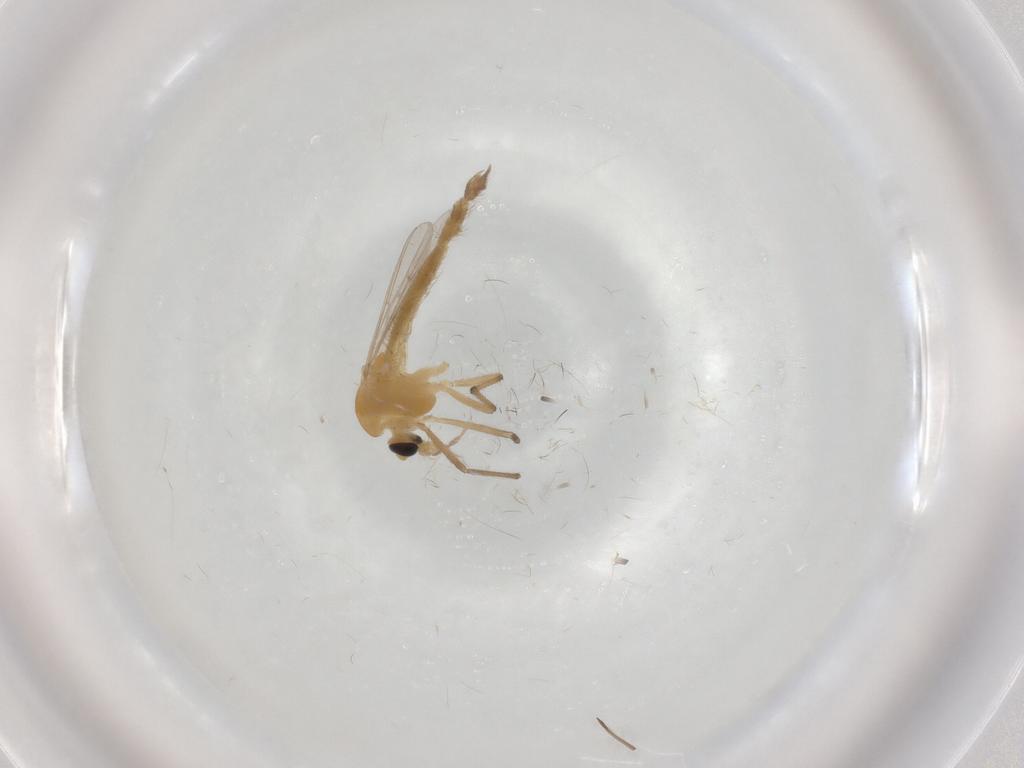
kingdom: Animalia
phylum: Arthropoda
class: Insecta
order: Diptera
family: Chironomidae
